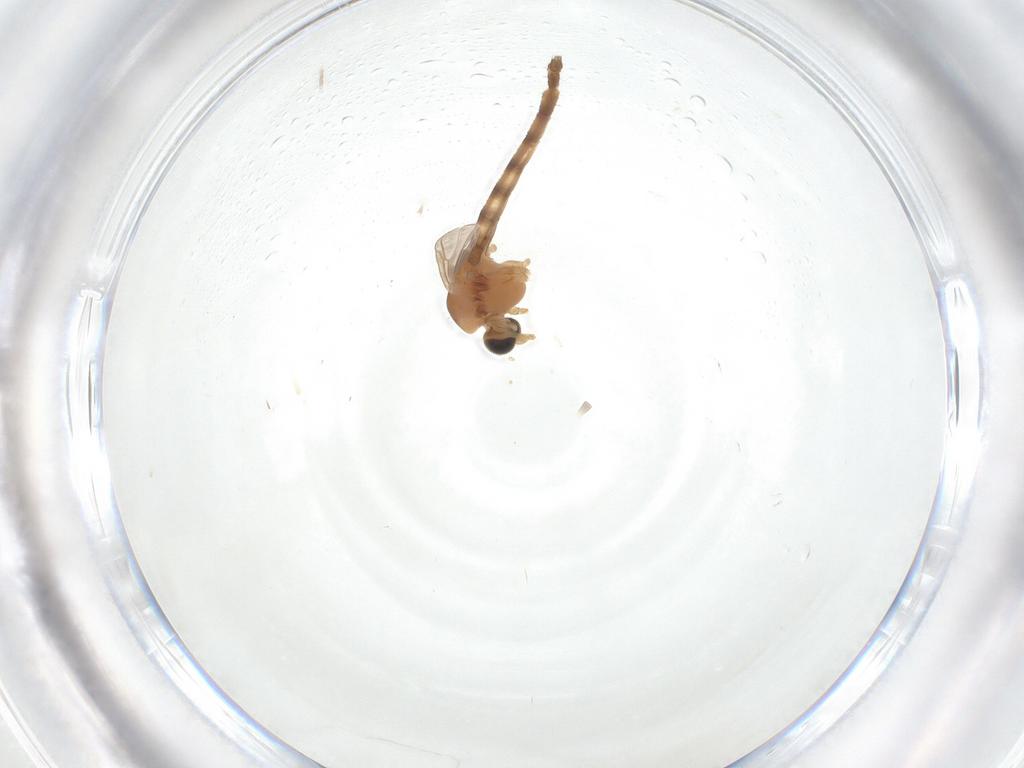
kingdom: Animalia
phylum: Arthropoda
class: Insecta
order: Diptera
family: Chironomidae
